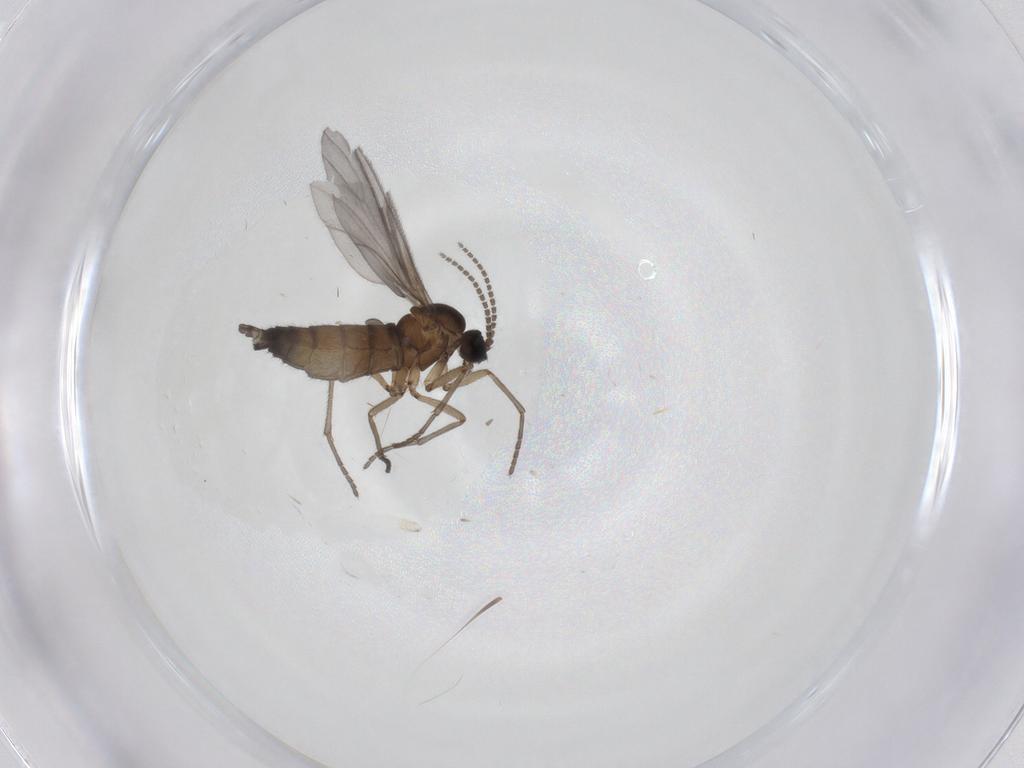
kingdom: Animalia
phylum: Arthropoda
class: Insecta
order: Diptera
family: Sciaridae
